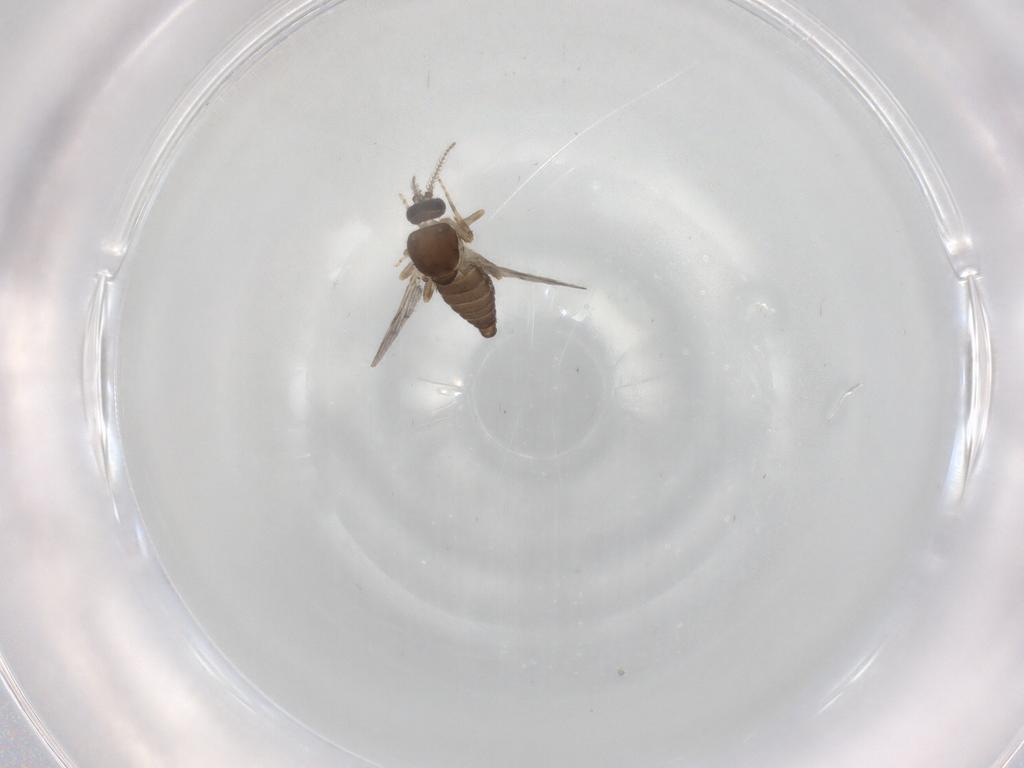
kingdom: Animalia
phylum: Arthropoda
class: Insecta
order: Diptera
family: Ceratopogonidae
